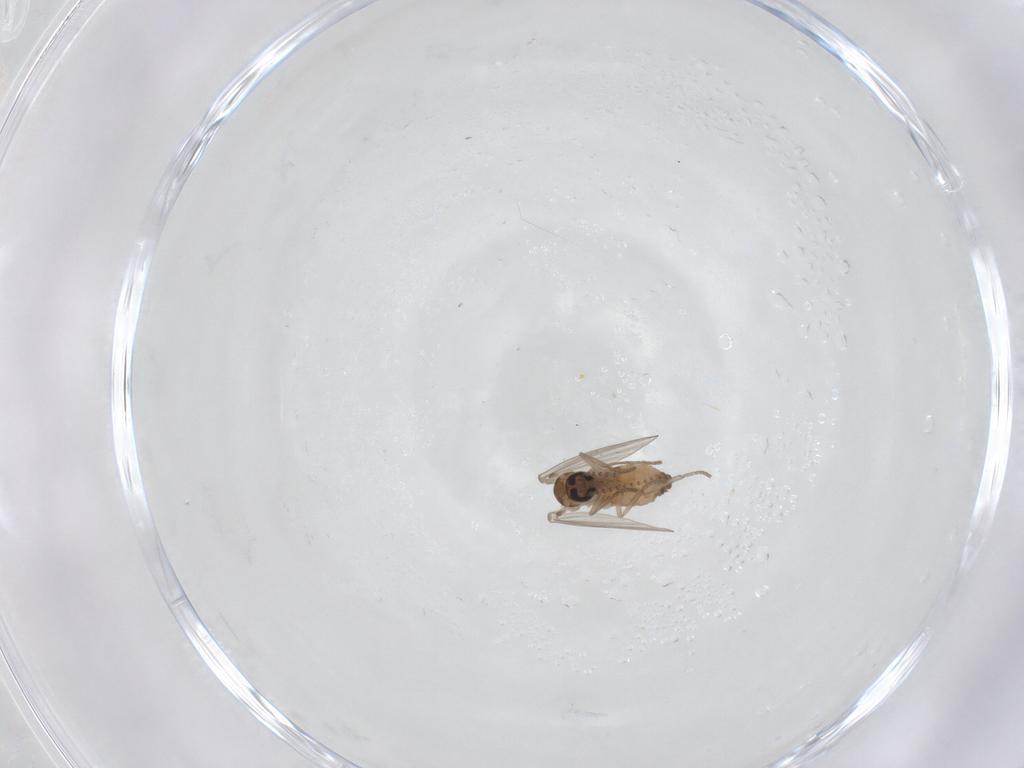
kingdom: Animalia
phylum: Arthropoda
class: Insecta
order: Diptera
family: Psychodidae
